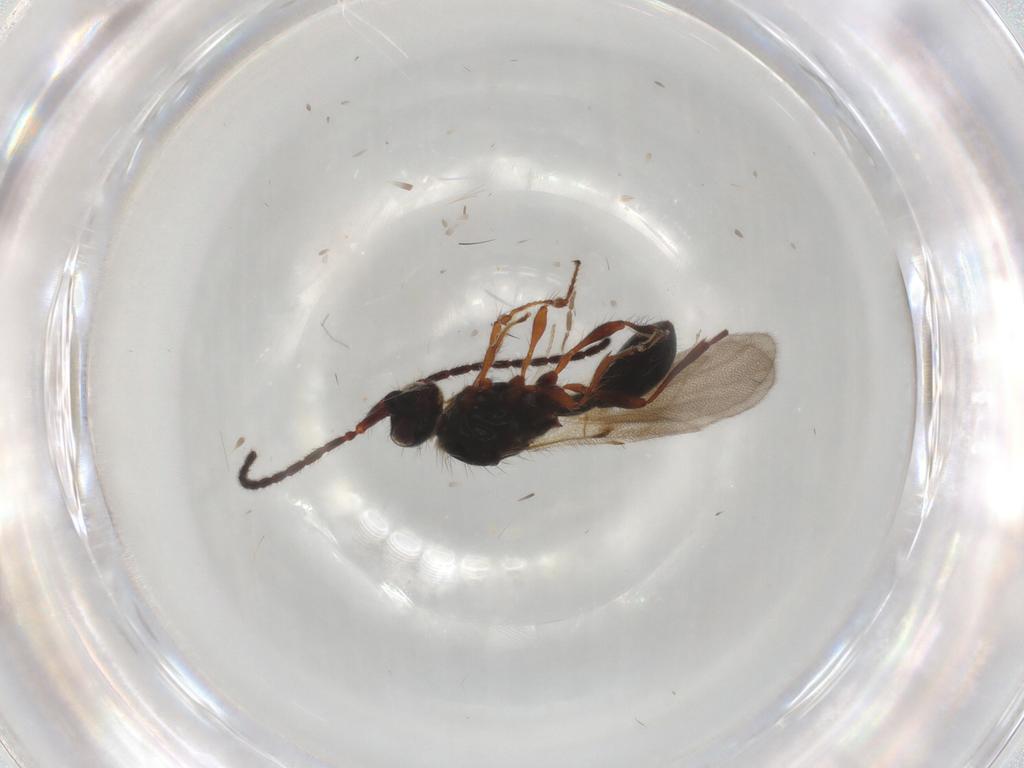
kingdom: Animalia
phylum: Arthropoda
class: Insecta
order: Hymenoptera
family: Diapriidae
